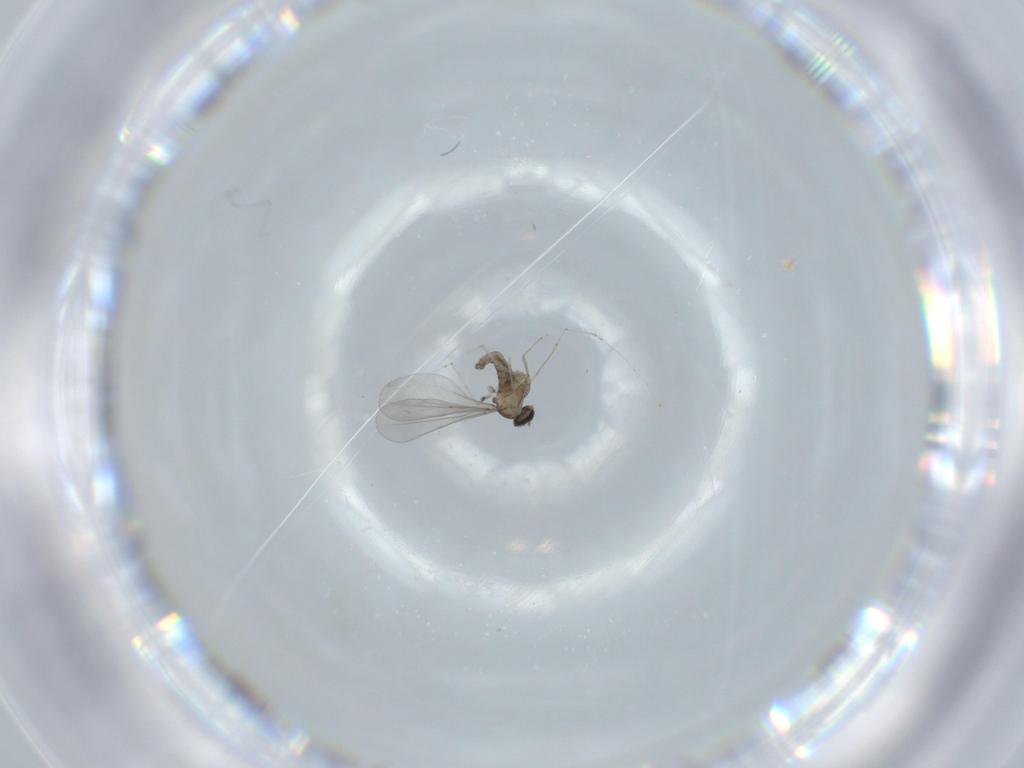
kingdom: Animalia
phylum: Arthropoda
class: Insecta
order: Diptera
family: Cecidomyiidae
